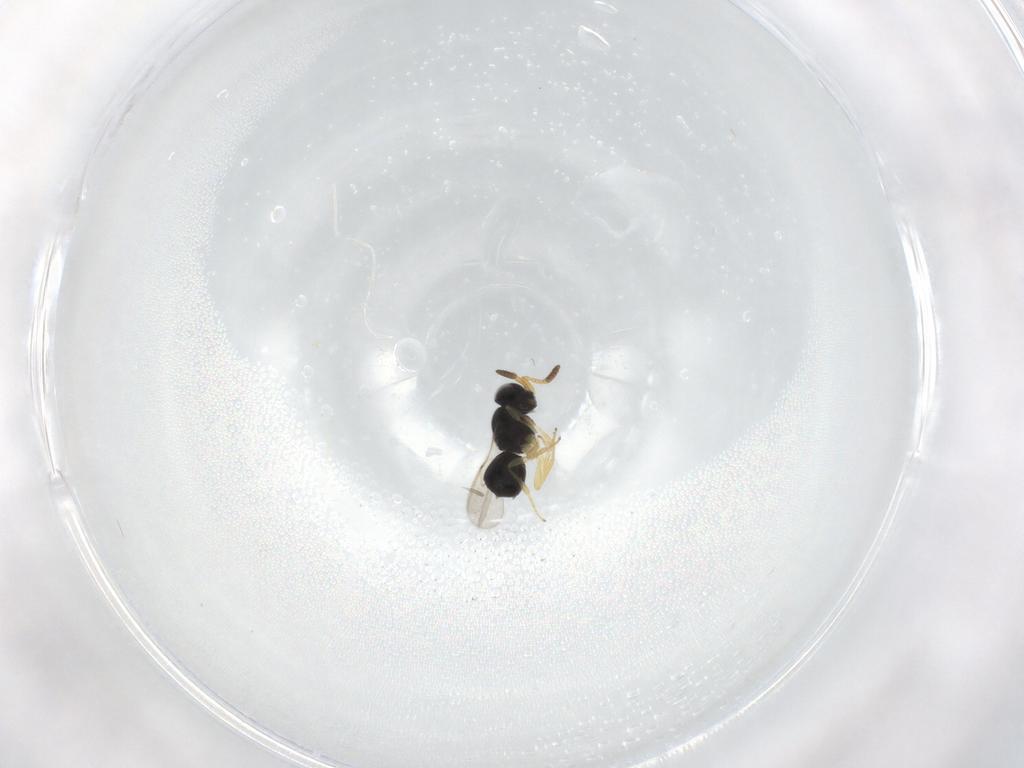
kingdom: Animalia
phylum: Arthropoda
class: Insecta
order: Hymenoptera
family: Scelionidae
